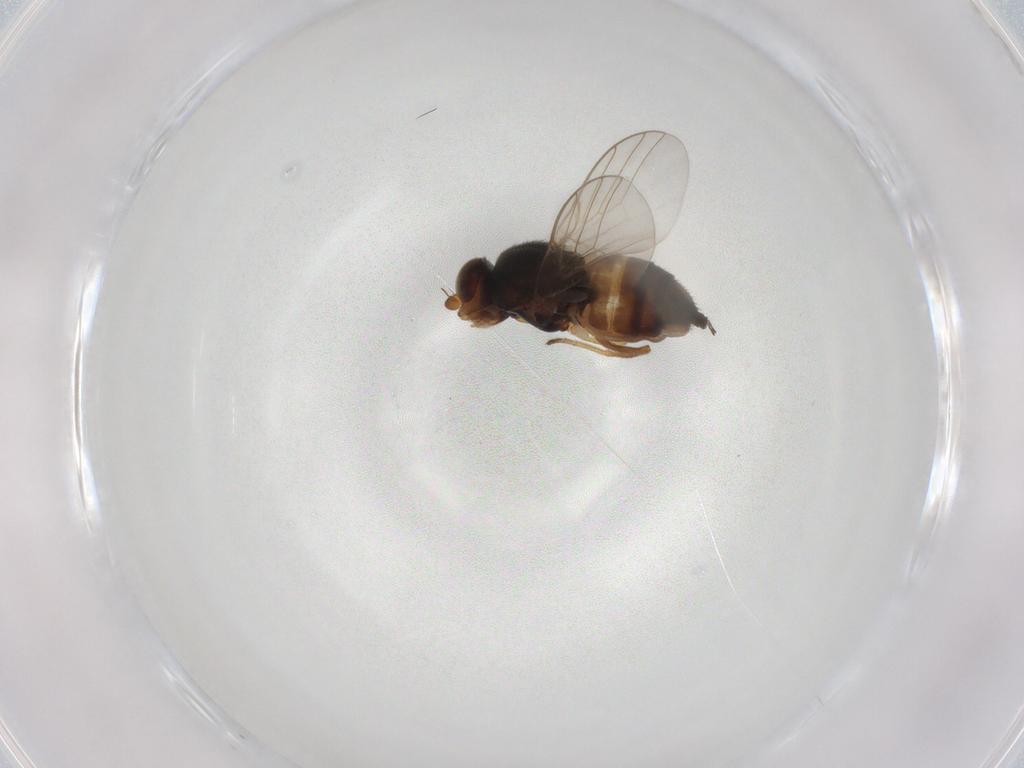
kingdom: Animalia
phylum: Arthropoda
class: Insecta
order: Diptera
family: Chloropidae
